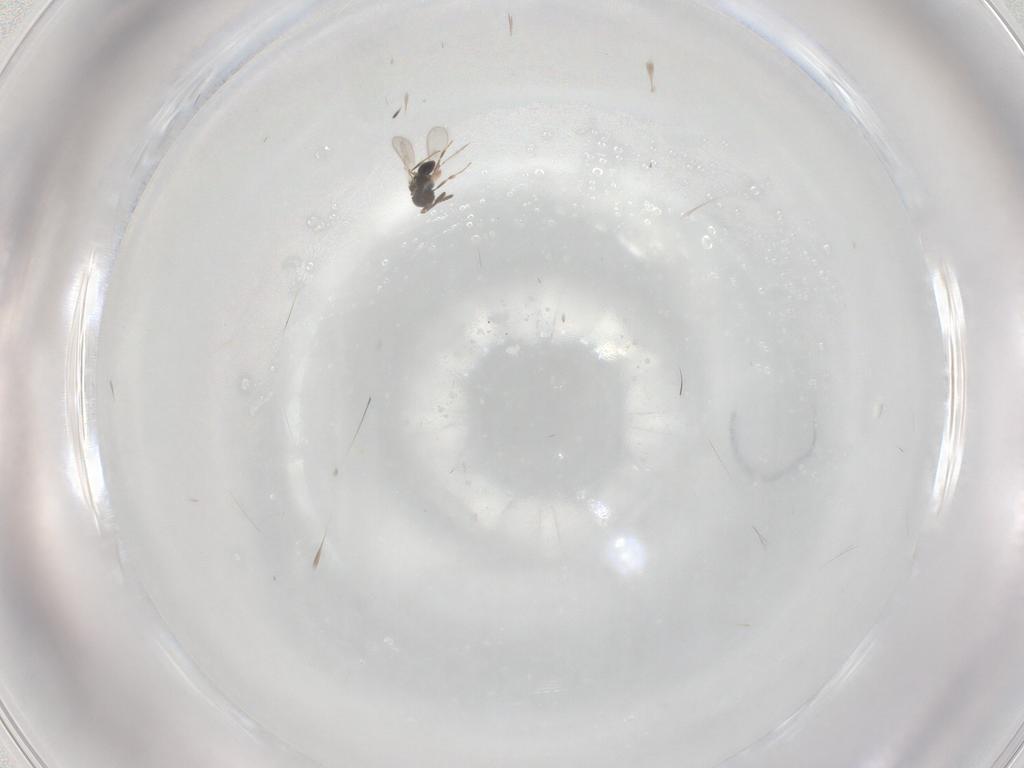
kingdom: Animalia
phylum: Arthropoda
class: Insecta
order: Hymenoptera
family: Scelionidae
